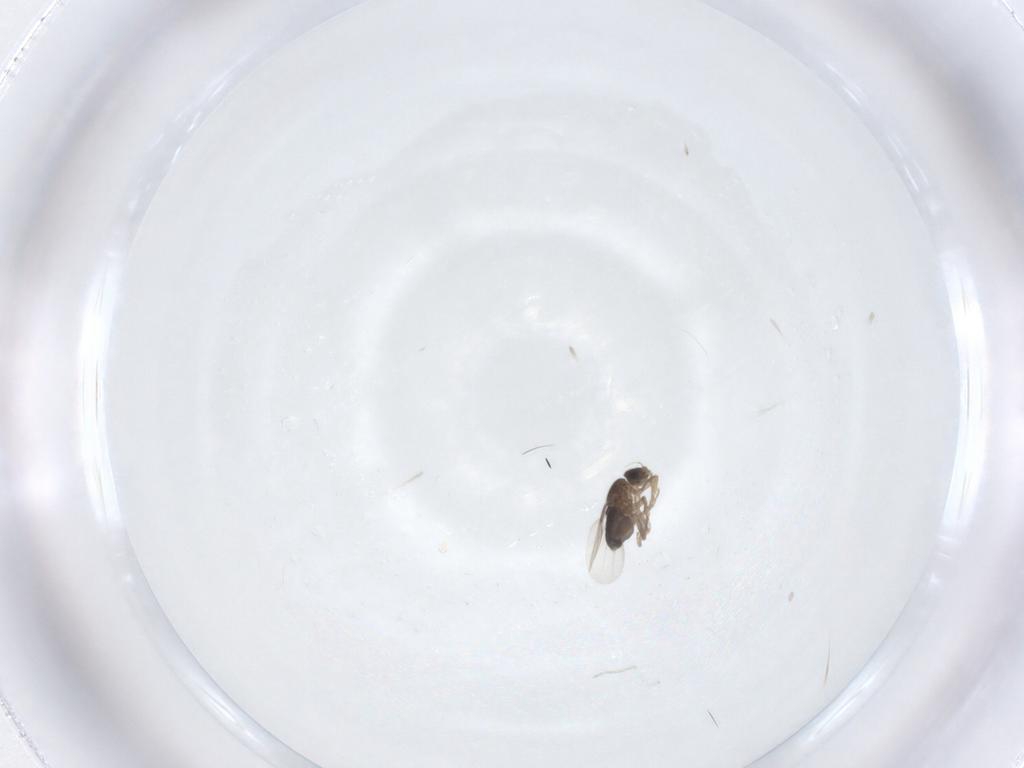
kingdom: Animalia
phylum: Arthropoda
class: Insecta
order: Diptera
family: Phoridae
